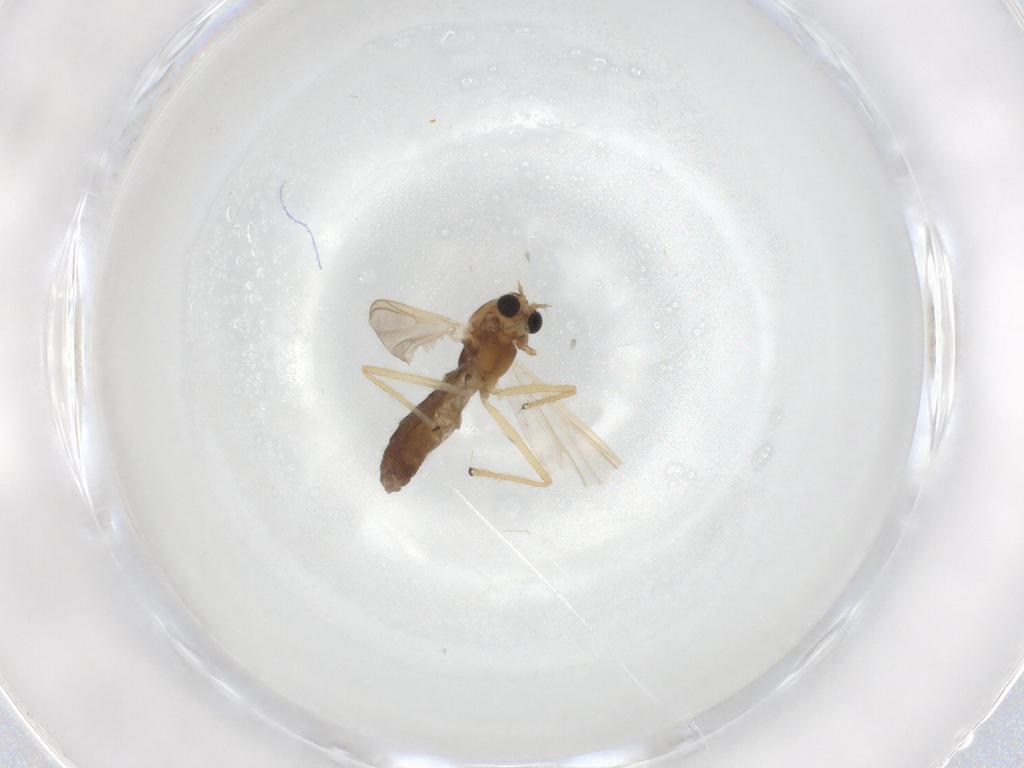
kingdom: Animalia
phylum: Arthropoda
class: Insecta
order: Diptera
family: Chironomidae
